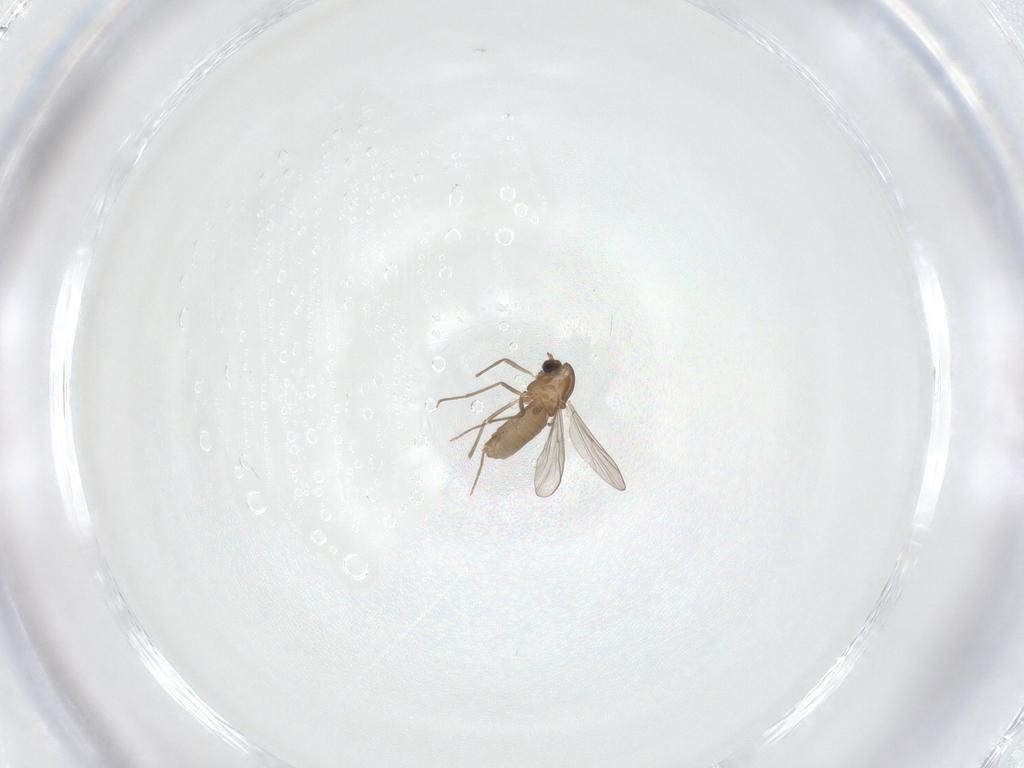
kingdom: Animalia
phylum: Arthropoda
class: Insecta
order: Diptera
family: Chironomidae
